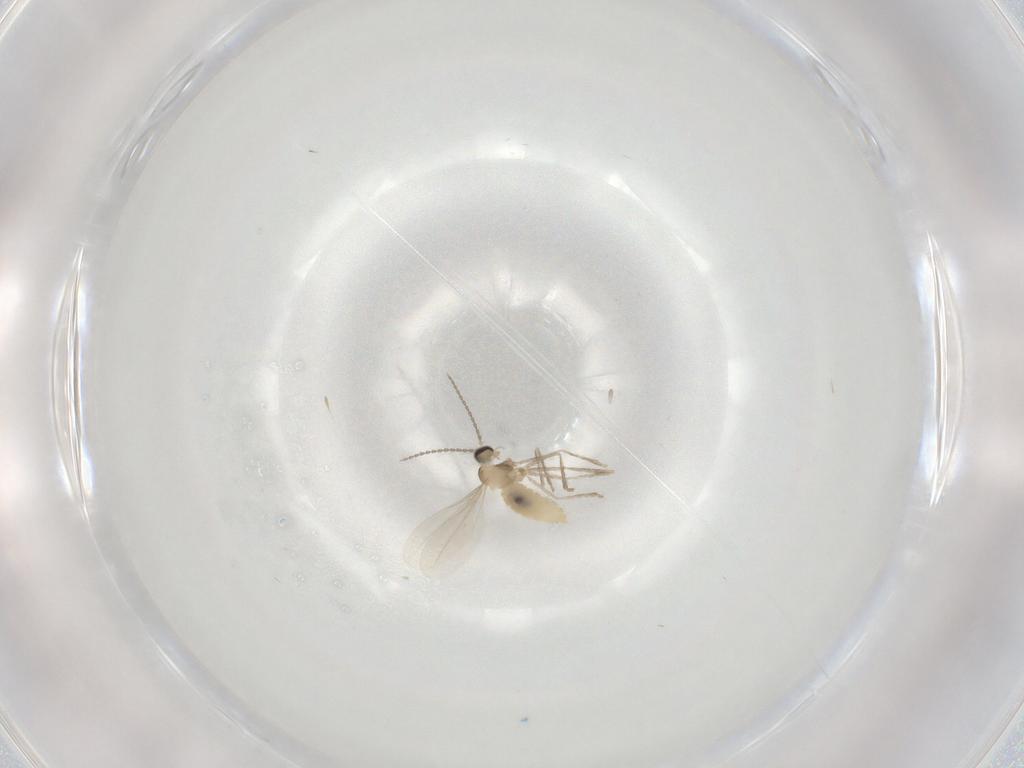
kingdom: Animalia
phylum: Arthropoda
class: Insecta
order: Diptera
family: Cecidomyiidae
